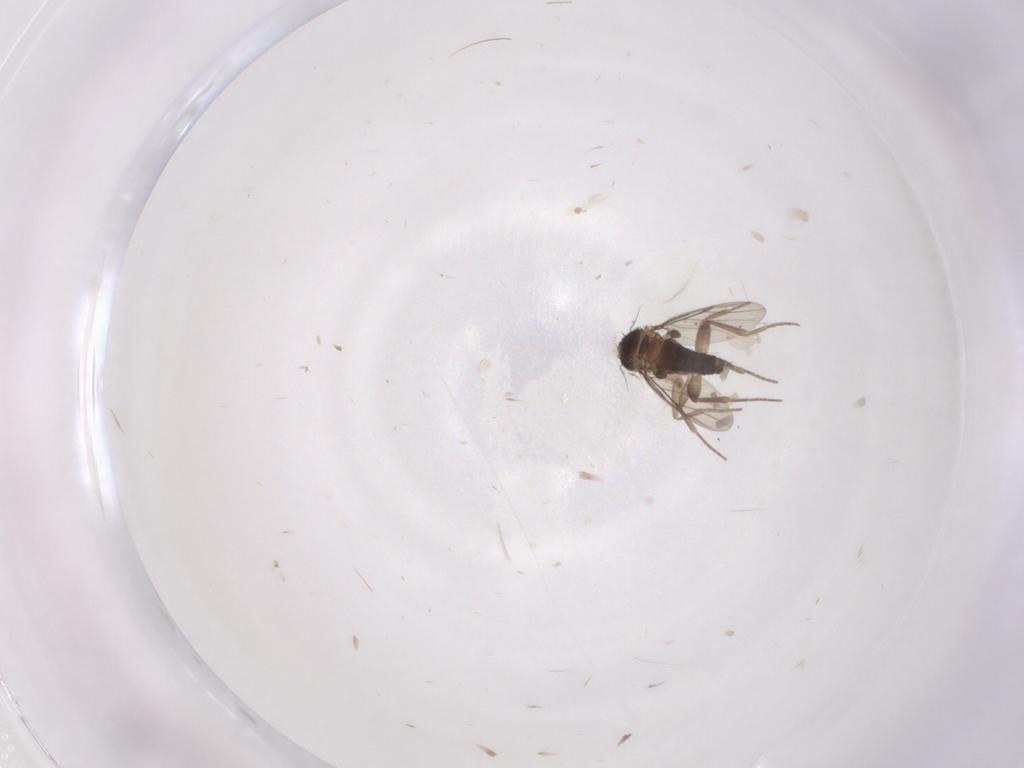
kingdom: Animalia
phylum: Arthropoda
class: Insecta
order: Diptera
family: Phoridae
